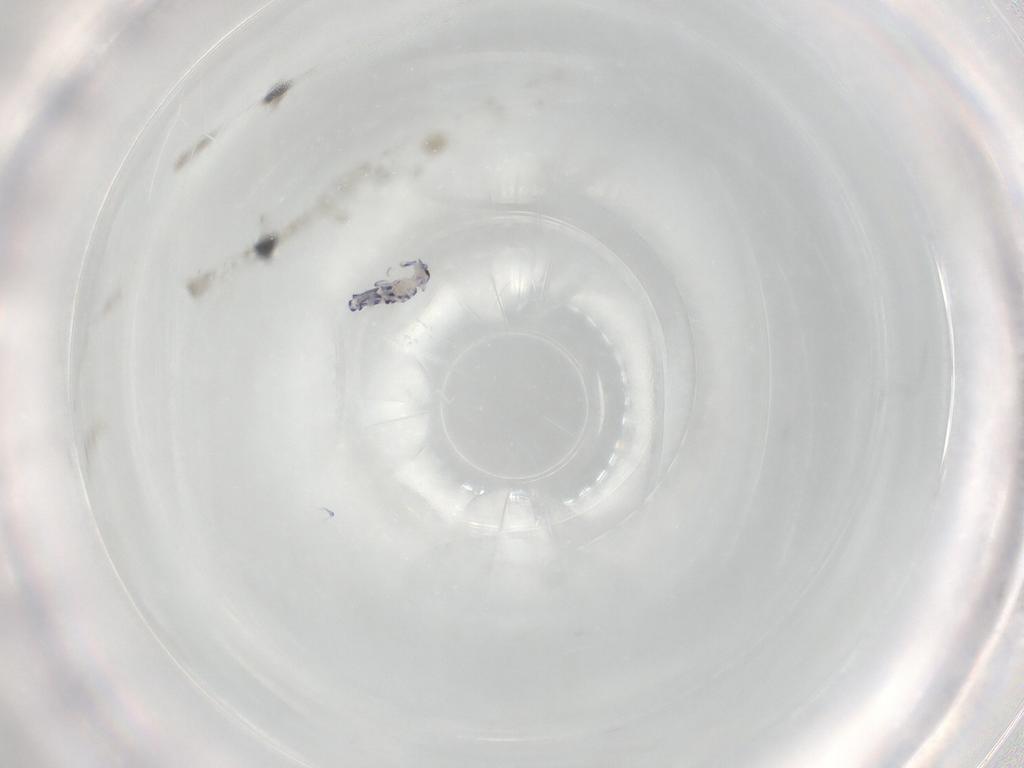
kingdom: Animalia
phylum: Arthropoda
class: Collembola
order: Entomobryomorpha
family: Entomobryidae
